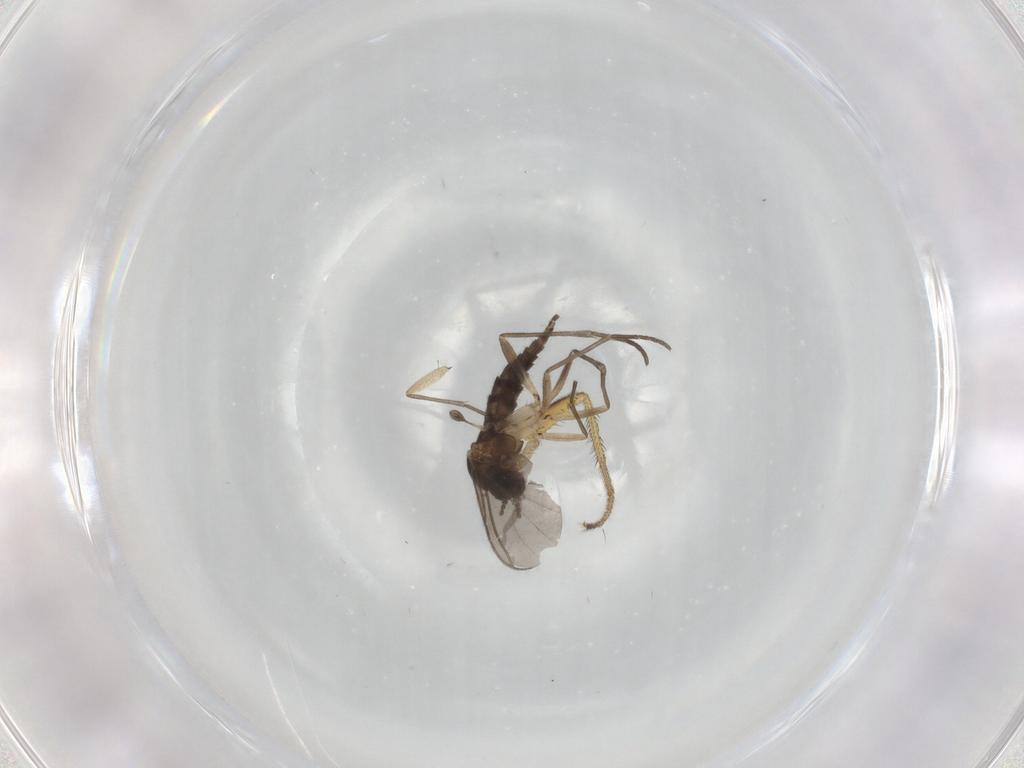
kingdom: Animalia
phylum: Arthropoda
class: Insecta
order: Diptera
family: Sciaridae
